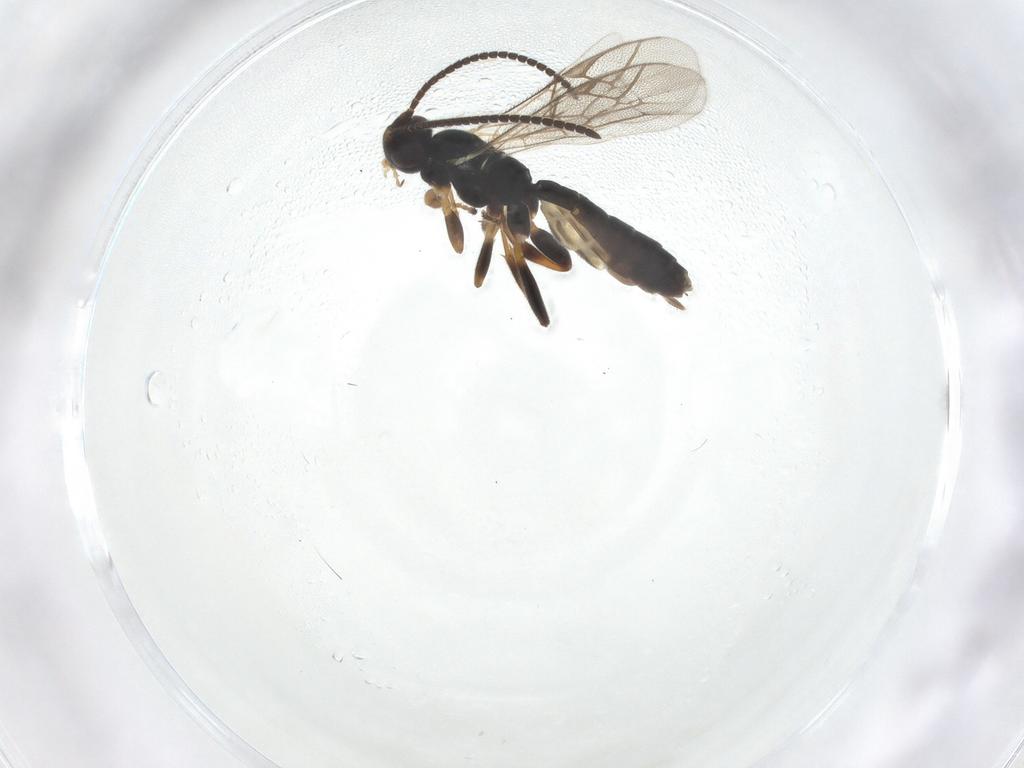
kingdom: Animalia
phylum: Arthropoda
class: Insecta
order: Hymenoptera
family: Ichneumonidae
